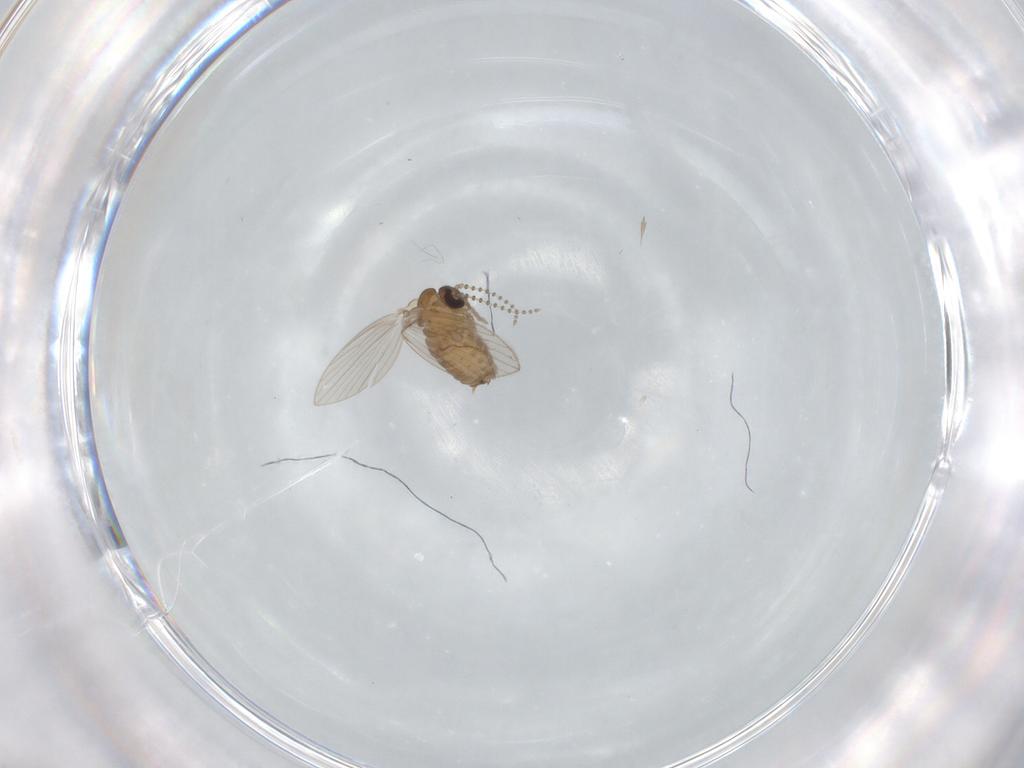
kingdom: Animalia
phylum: Arthropoda
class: Insecta
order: Diptera
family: Psychodidae
